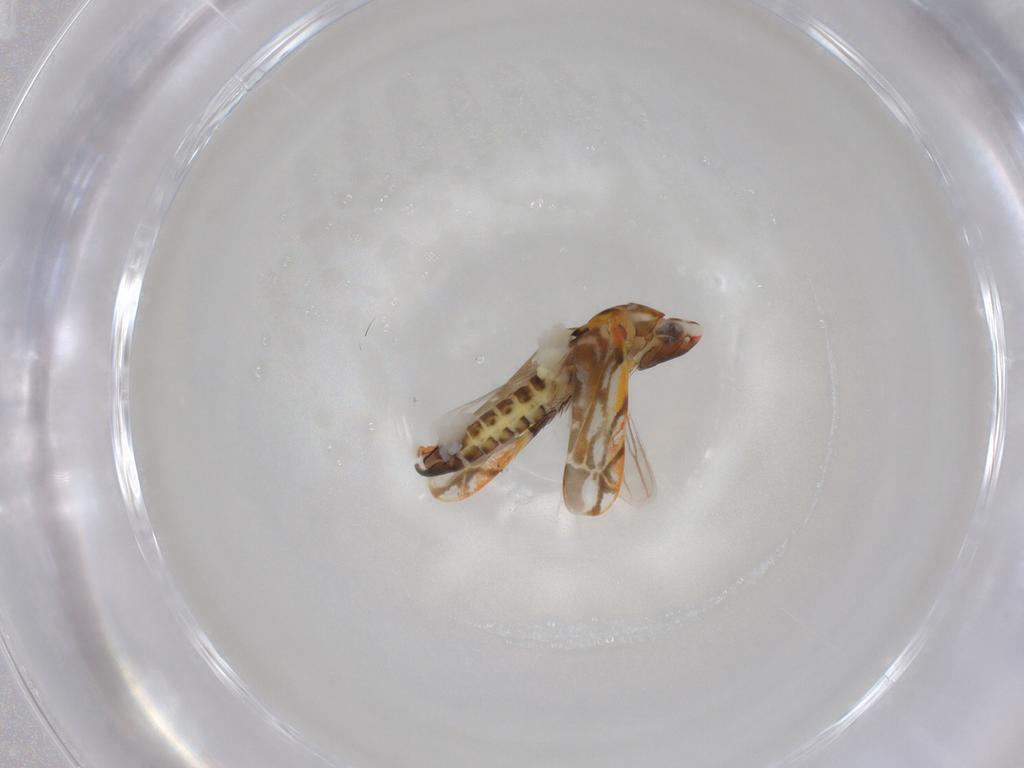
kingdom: Animalia
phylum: Arthropoda
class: Insecta
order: Hemiptera
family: Cicadellidae
